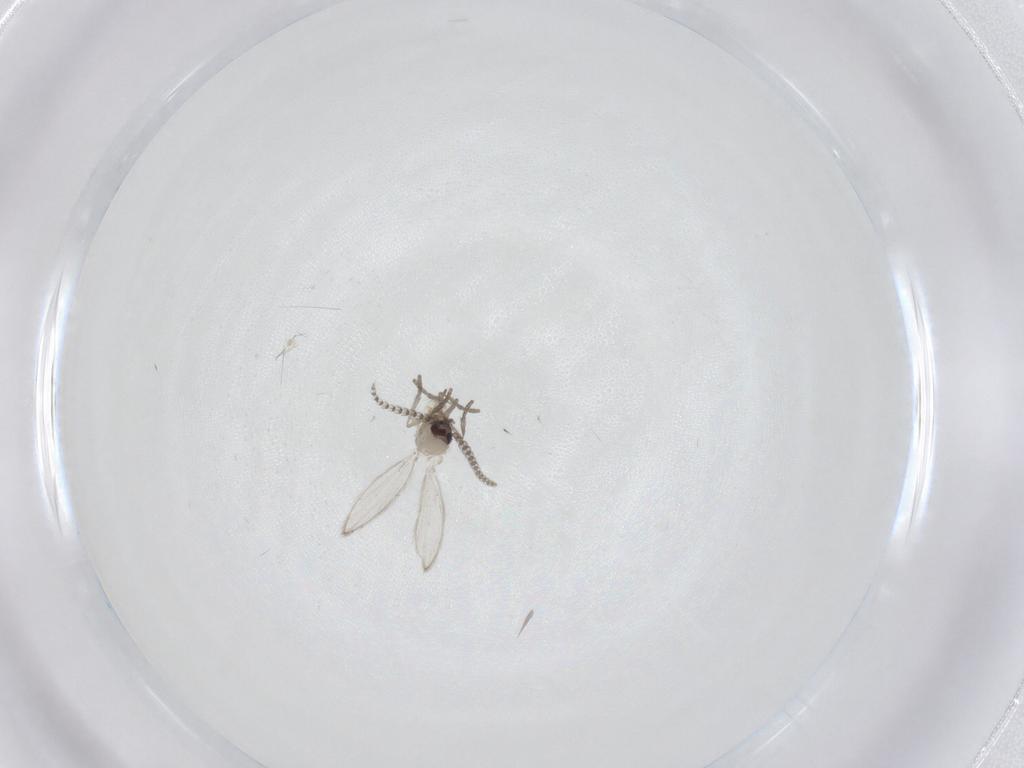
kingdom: Animalia
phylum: Arthropoda
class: Insecta
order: Diptera
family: Psychodidae
